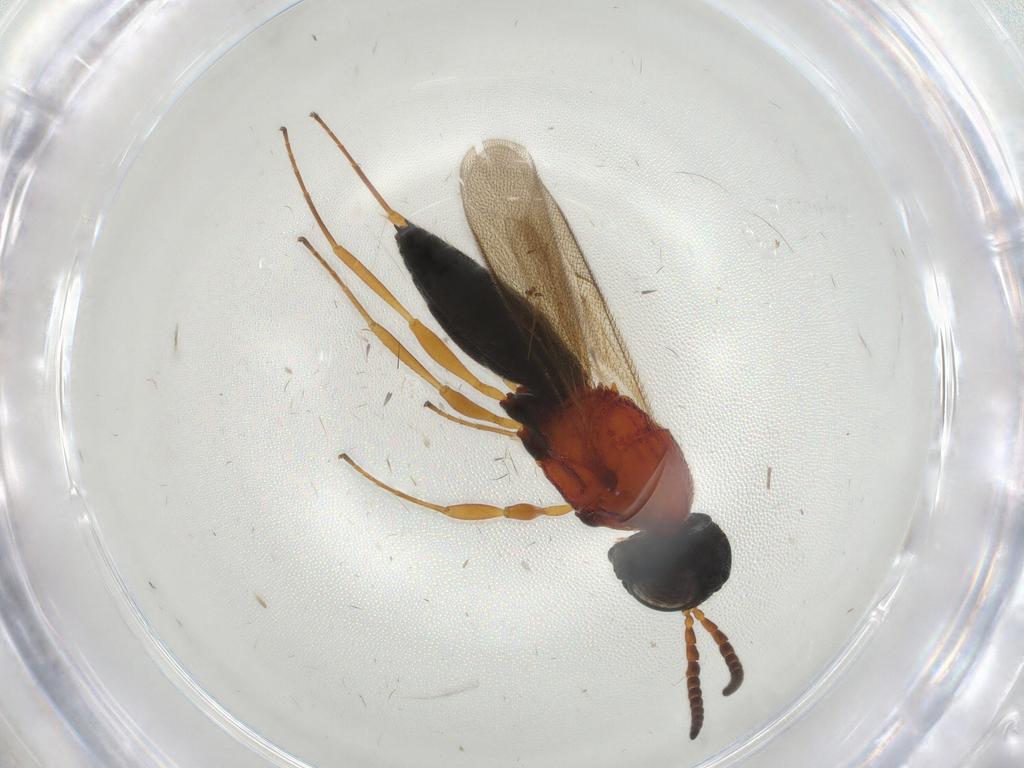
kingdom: Animalia
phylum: Arthropoda
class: Insecta
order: Hymenoptera
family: Scelionidae
